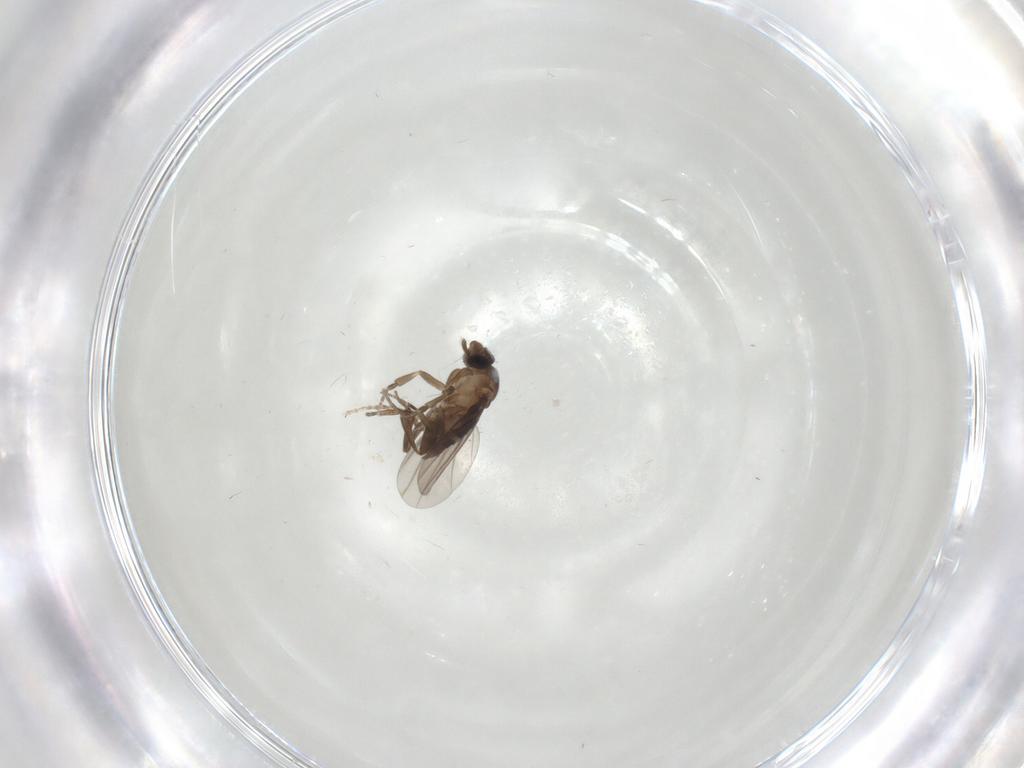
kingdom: Animalia
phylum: Arthropoda
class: Insecta
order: Diptera
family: Phoridae
